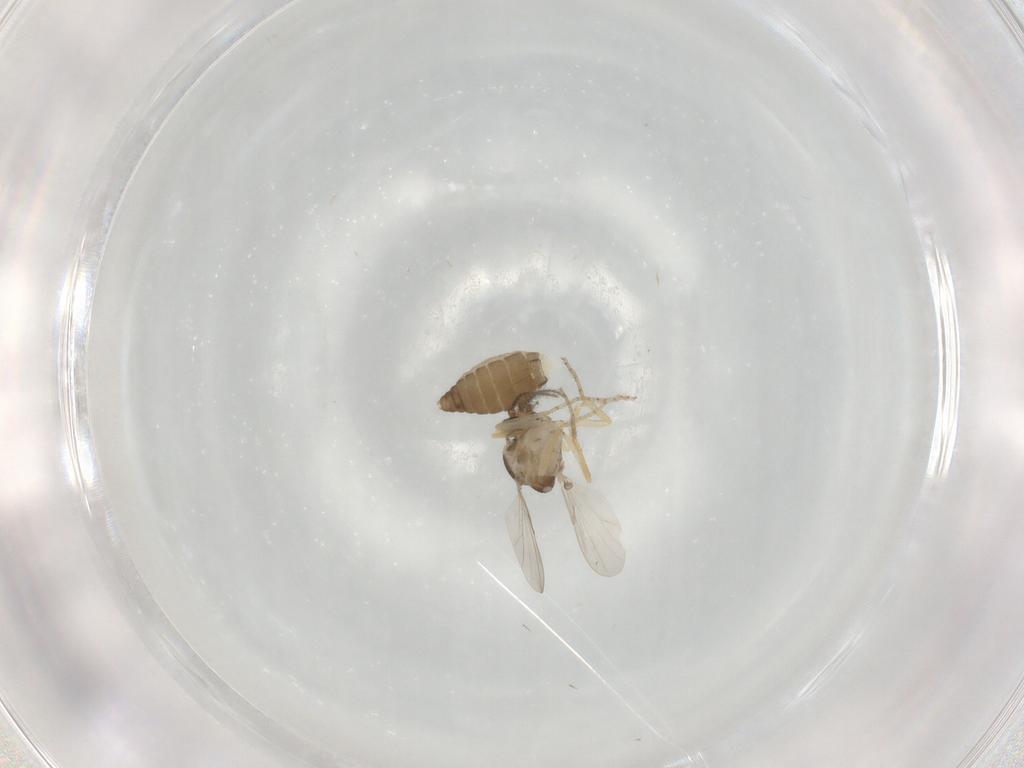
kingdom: Animalia
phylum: Arthropoda
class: Insecta
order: Diptera
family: Ceratopogonidae
